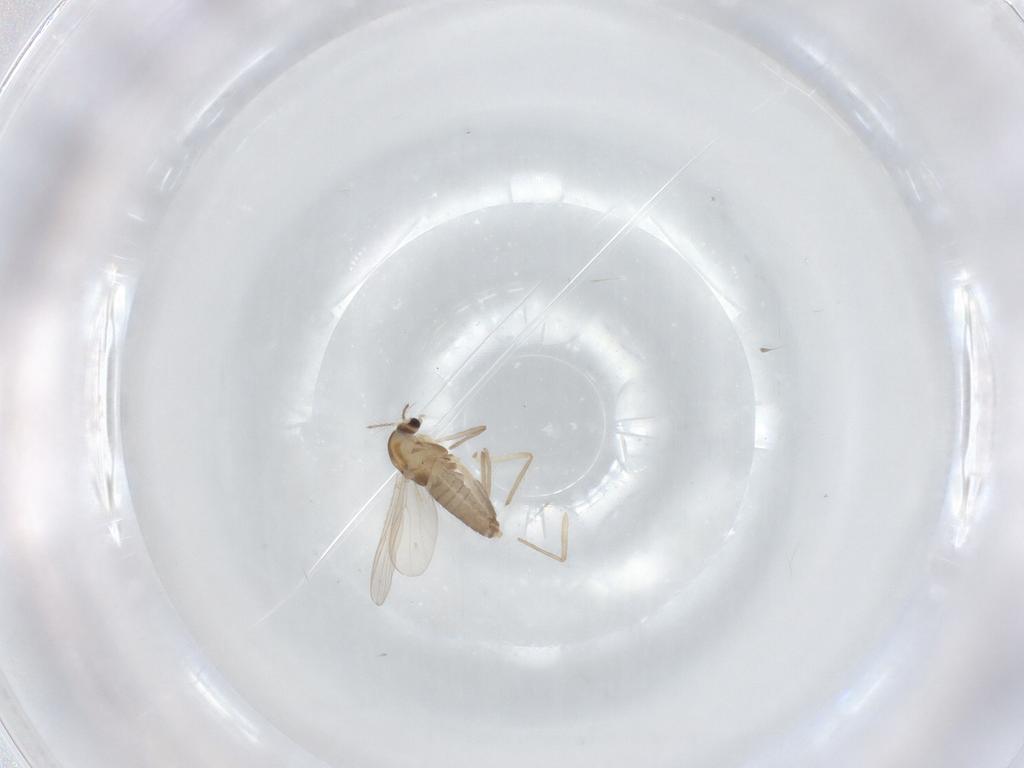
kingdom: Animalia
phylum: Arthropoda
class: Insecta
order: Diptera
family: Chironomidae
